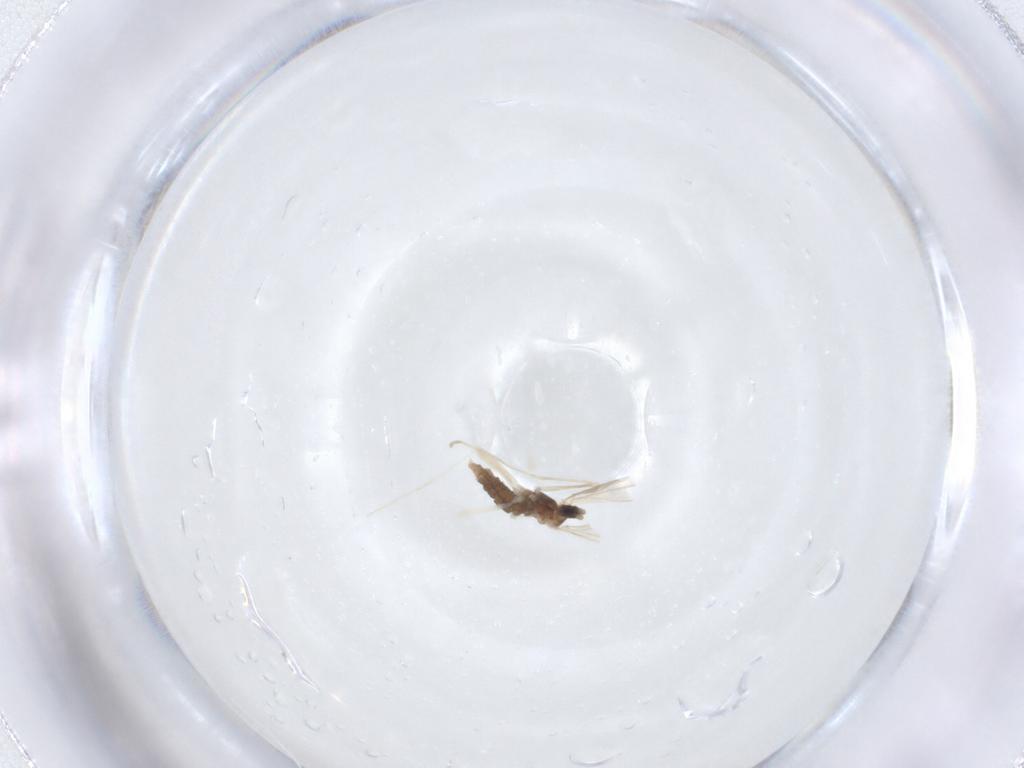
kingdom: Animalia
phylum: Arthropoda
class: Insecta
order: Diptera
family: Cecidomyiidae
